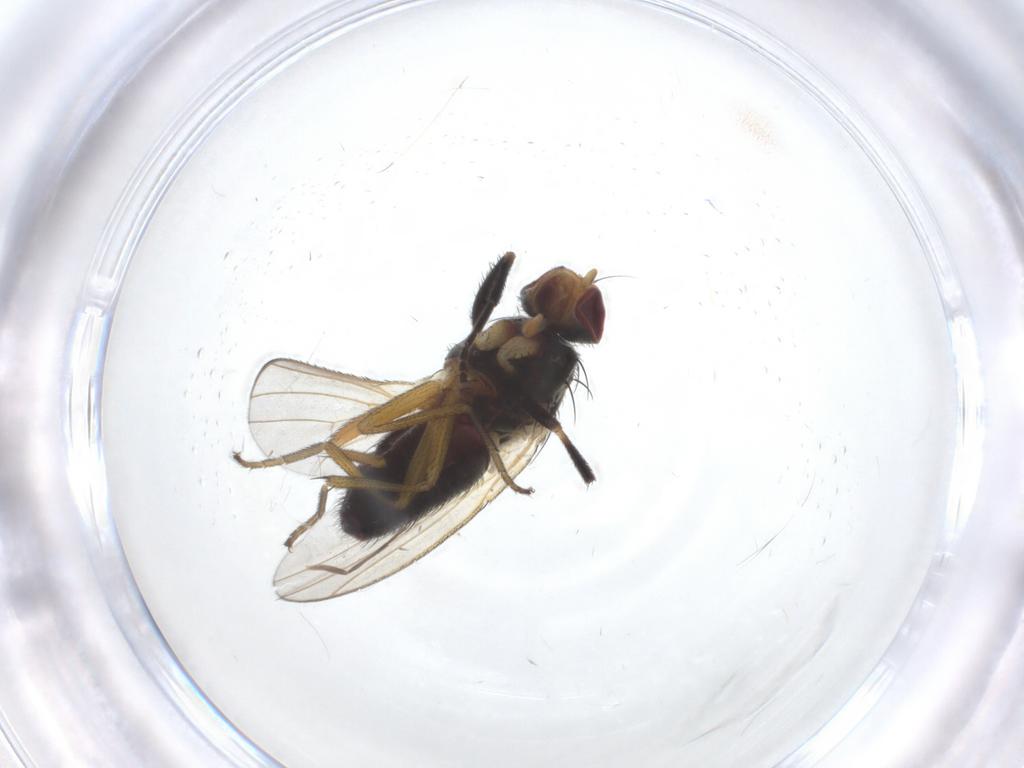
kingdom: Animalia
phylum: Arthropoda
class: Insecta
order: Diptera
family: Heleomyzidae
